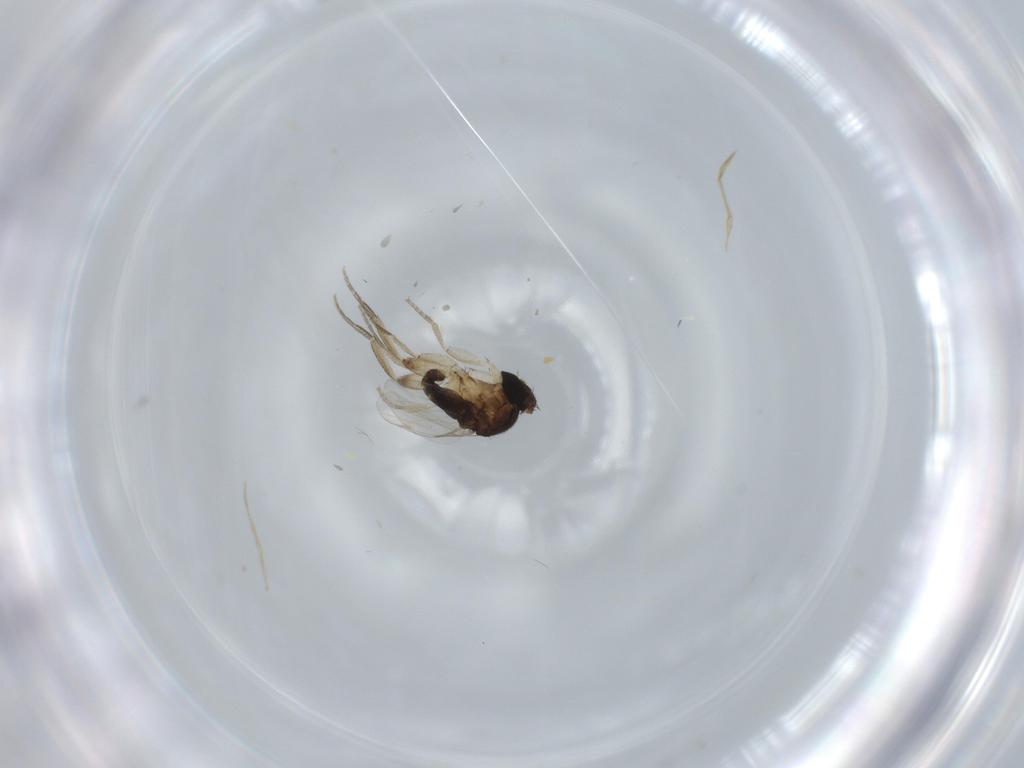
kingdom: Animalia
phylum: Arthropoda
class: Insecta
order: Diptera
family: Phoridae
